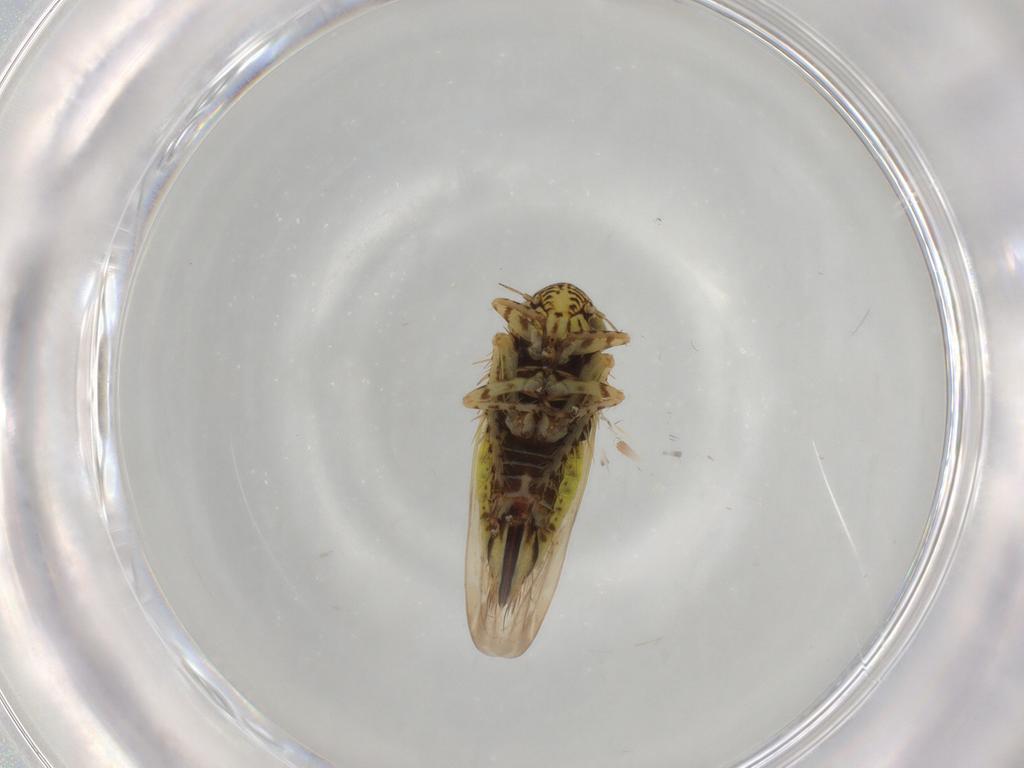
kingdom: Animalia
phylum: Arthropoda
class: Insecta
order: Hemiptera
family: Cicadellidae
